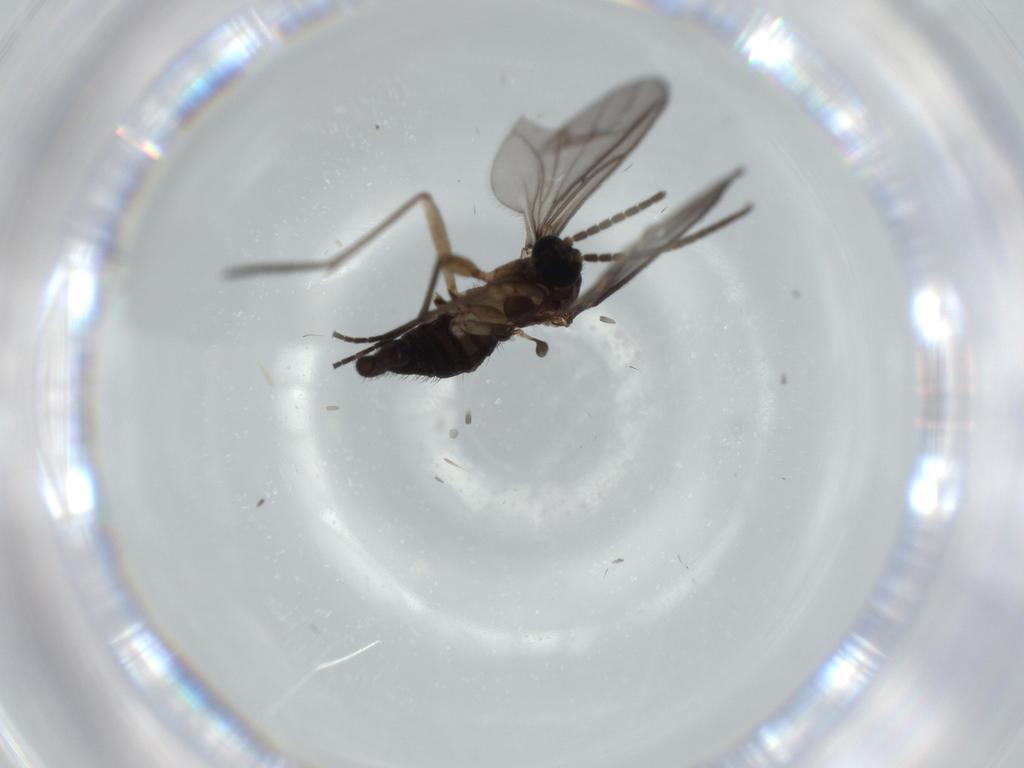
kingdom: Animalia
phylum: Arthropoda
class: Insecta
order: Diptera
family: Sciaridae
